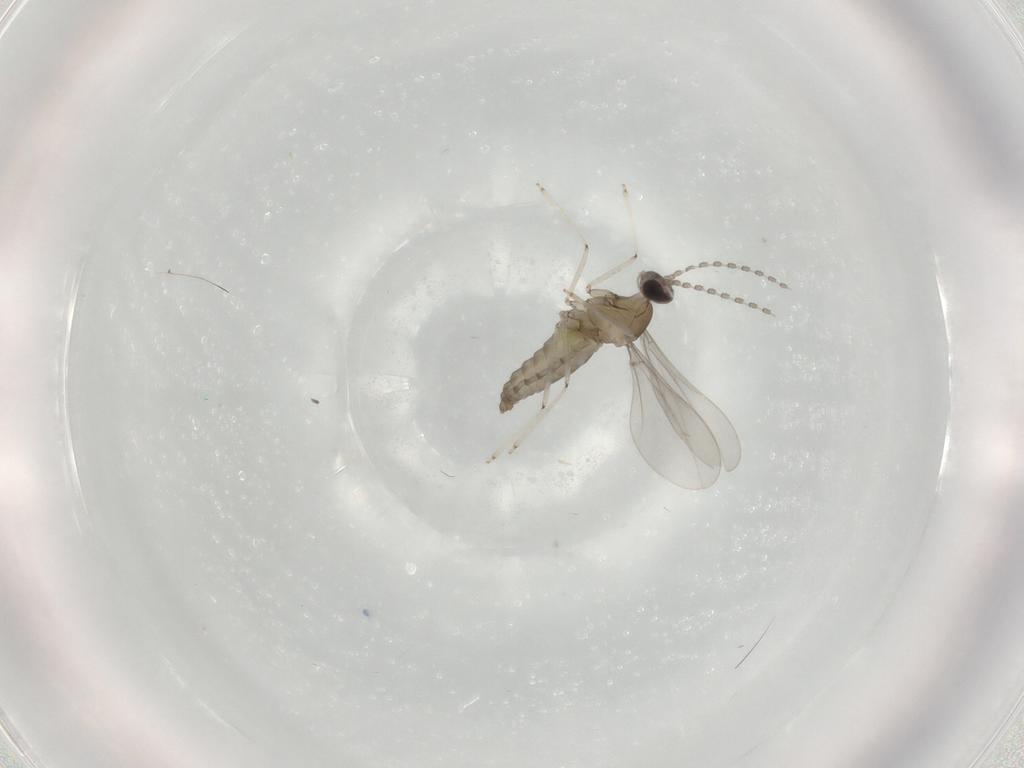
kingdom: Animalia
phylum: Arthropoda
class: Insecta
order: Diptera
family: Cecidomyiidae
